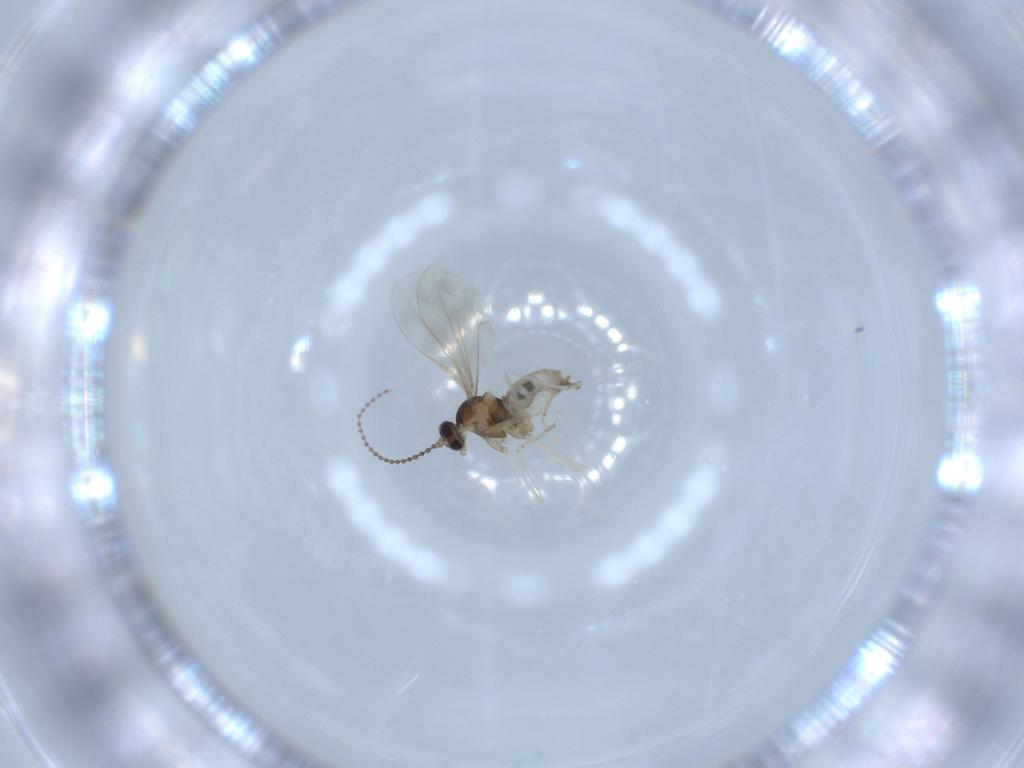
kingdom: Animalia
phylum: Arthropoda
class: Insecta
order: Diptera
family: Cecidomyiidae
